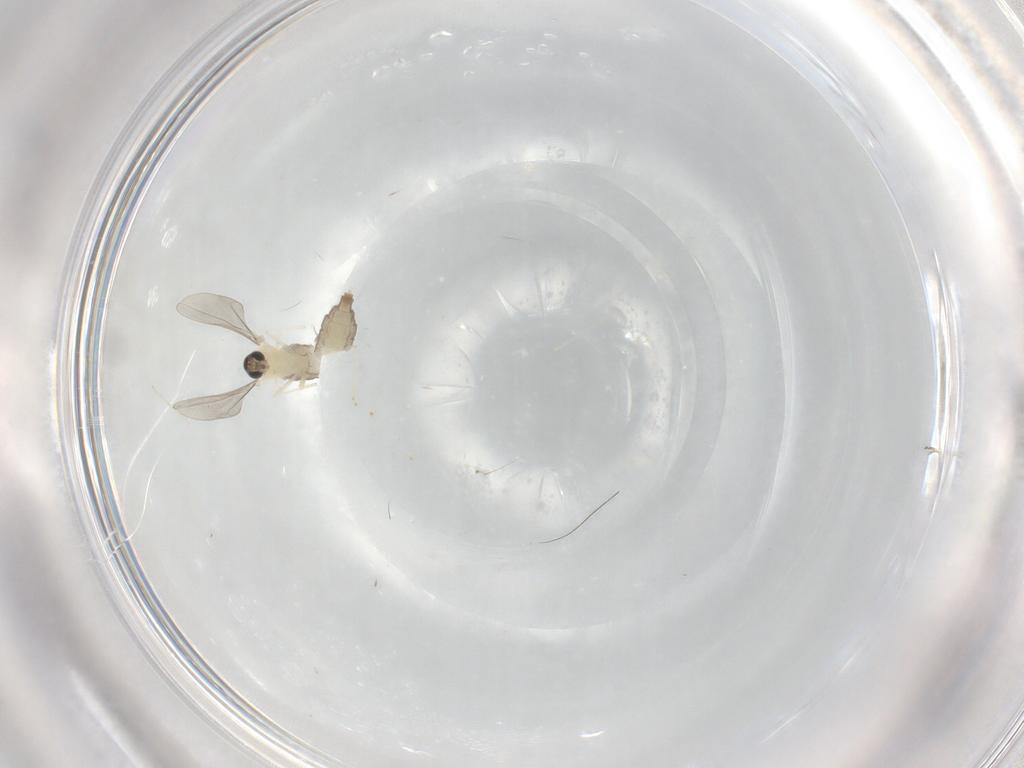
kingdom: Animalia
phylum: Arthropoda
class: Insecta
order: Diptera
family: Cecidomyiidae
